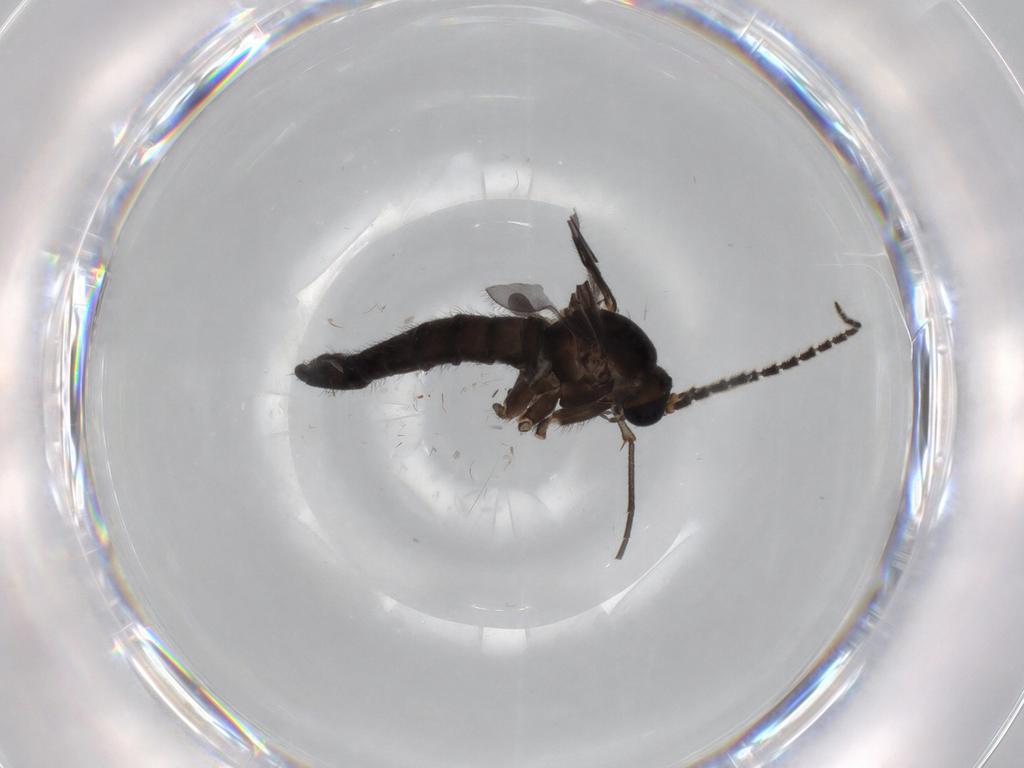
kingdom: Animalia
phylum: Arthropoda
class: Insecta
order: Diptera
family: Sciaridae
